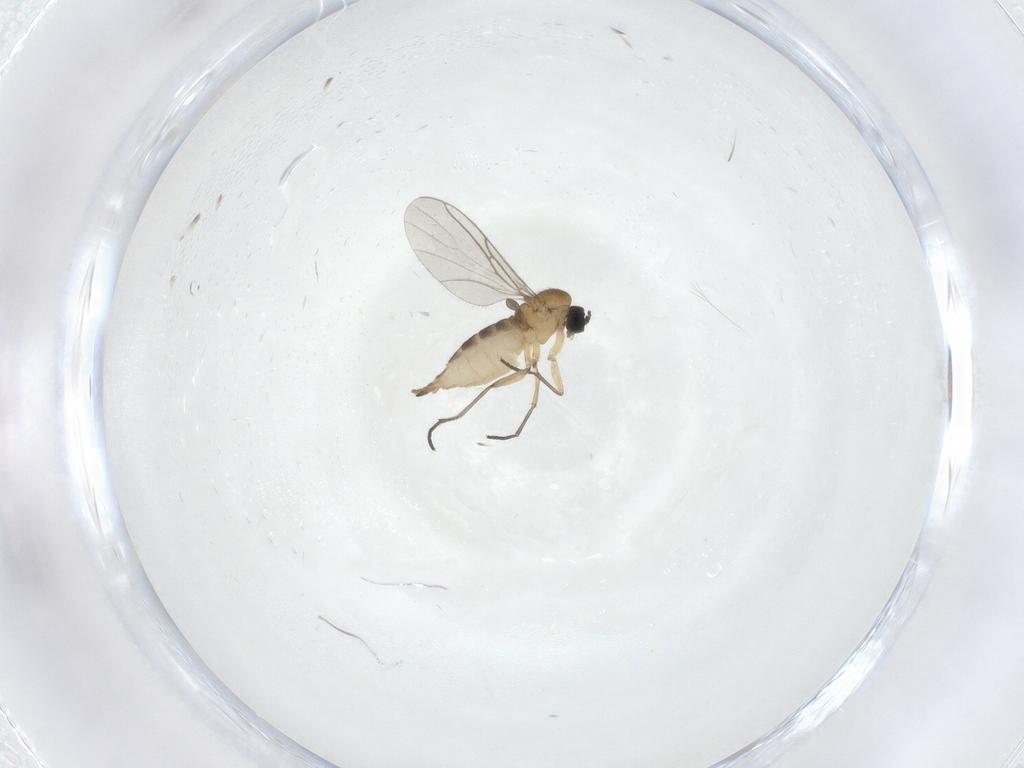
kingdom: Animalia
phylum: Arthropoda
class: Insecta
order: Diptera
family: Sciaridae
